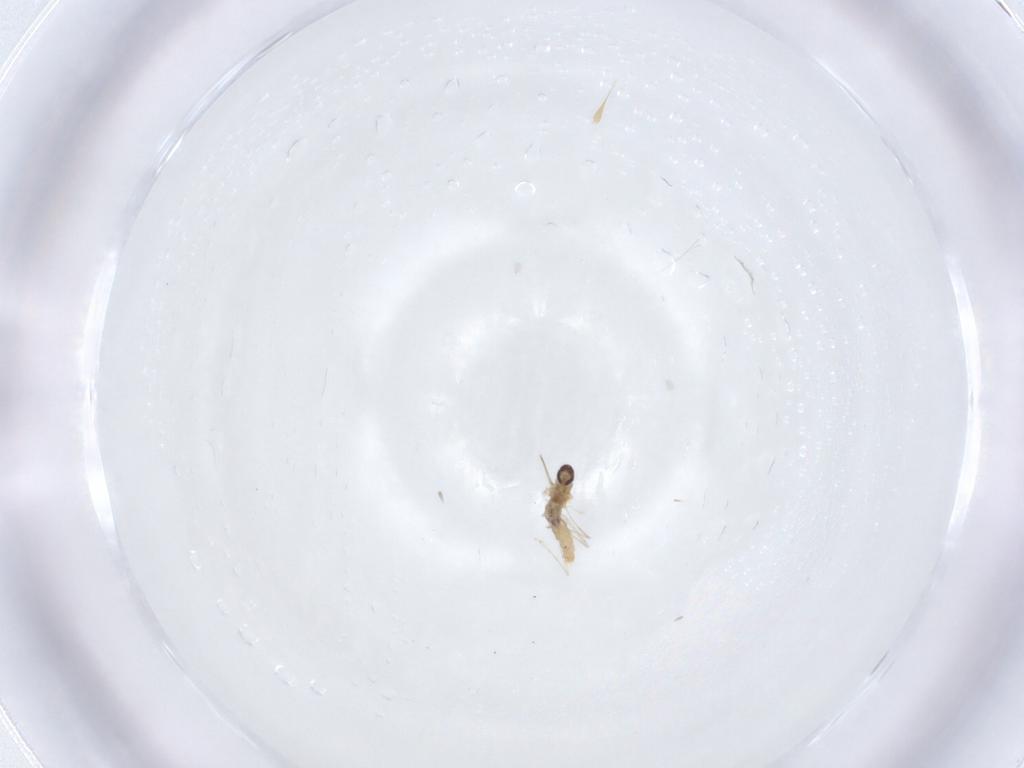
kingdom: Animalia
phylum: Arthropoda
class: Insecta
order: Diptera
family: Cecidomyiidae
